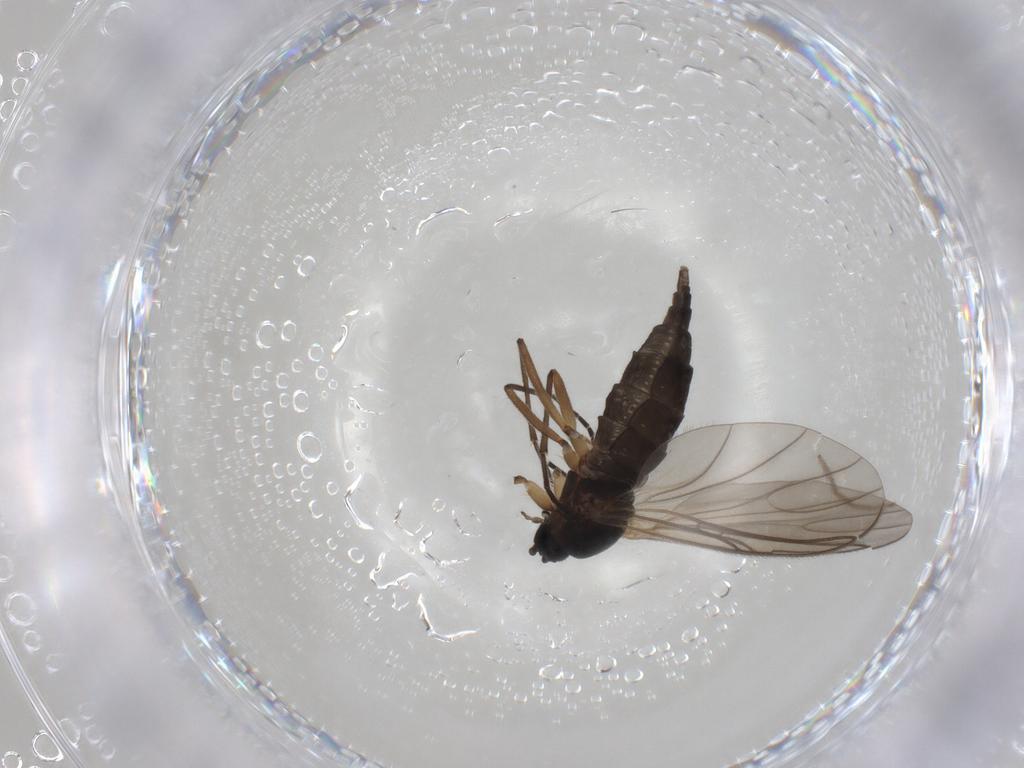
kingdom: Animalia
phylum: Arthropoda
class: Insecta
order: Diptera
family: Sciaridae
